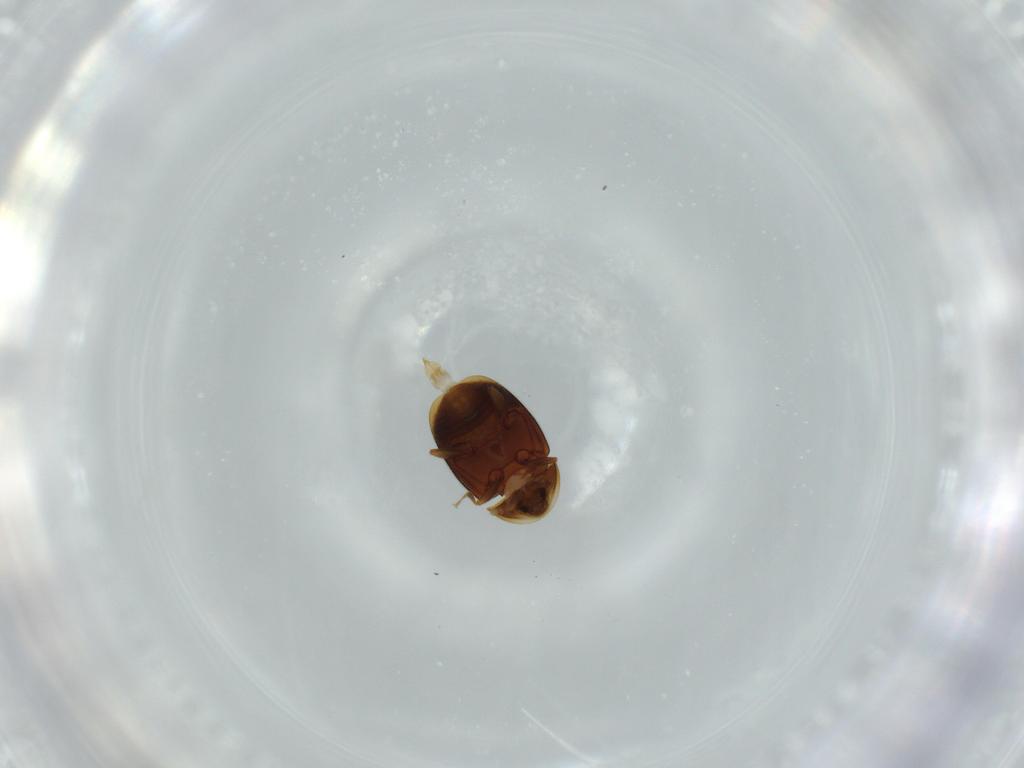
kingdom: Animalia
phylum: Arthropoda
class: Insecta
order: Coleoptera
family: Corylophidae
